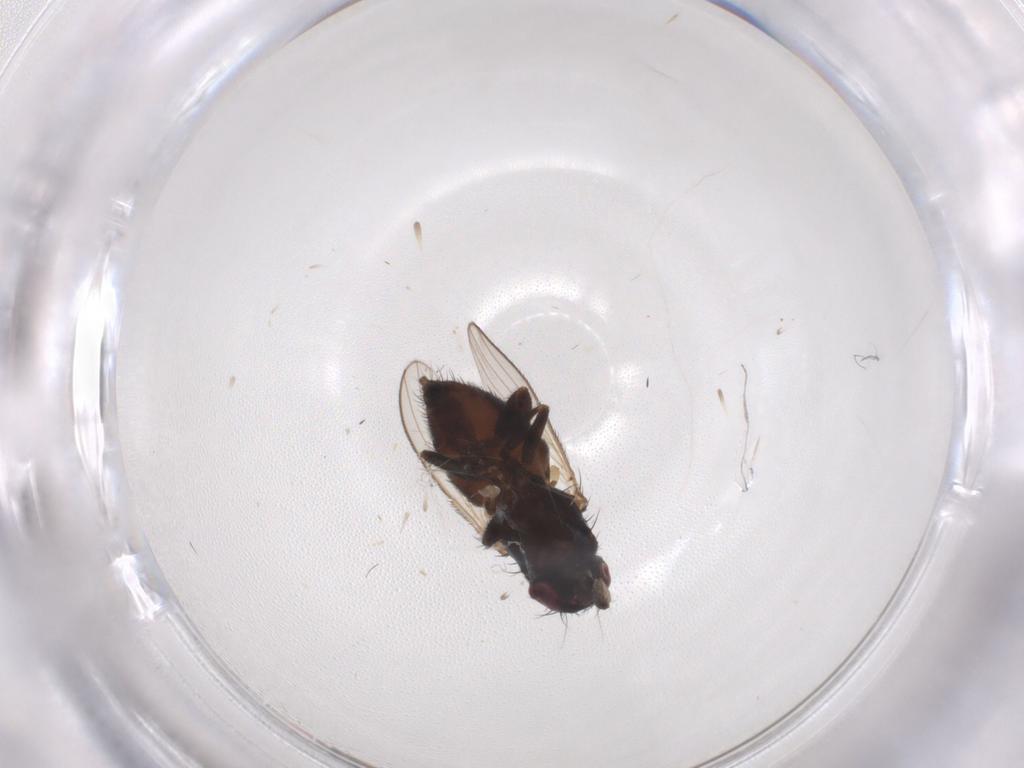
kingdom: Animalia
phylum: Arthropoda
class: Insecta
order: Diptera
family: Milichiidae
